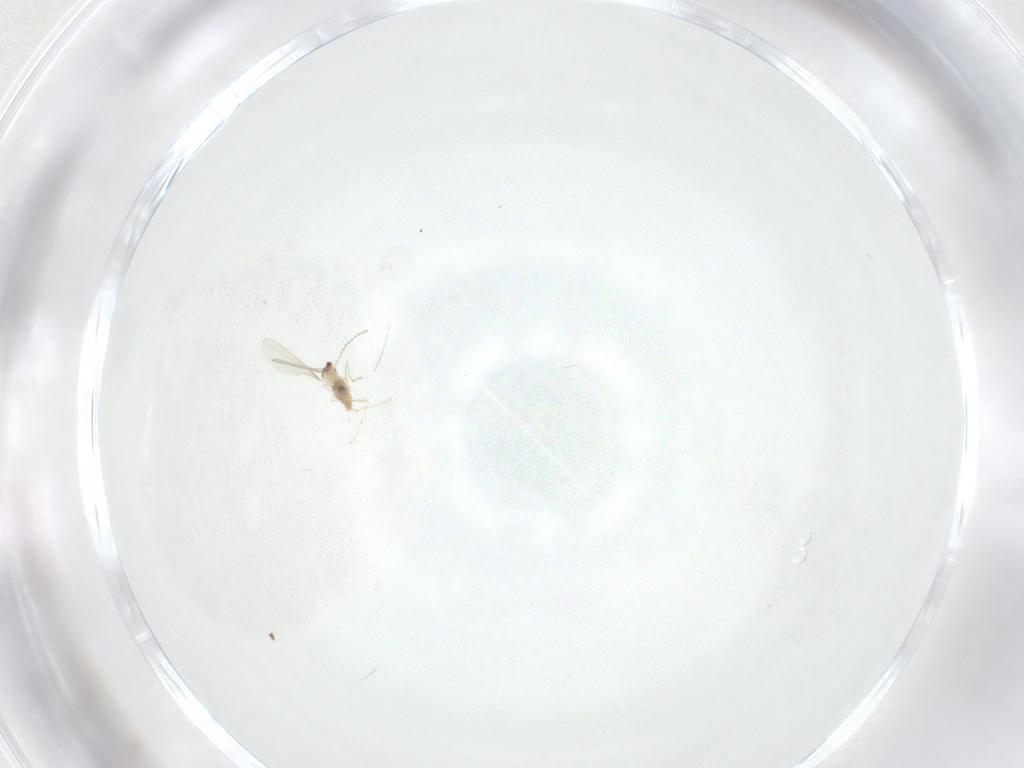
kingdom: Animalia
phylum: Arthropoda
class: Insecta
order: Diptera
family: Cecidomyiidae
